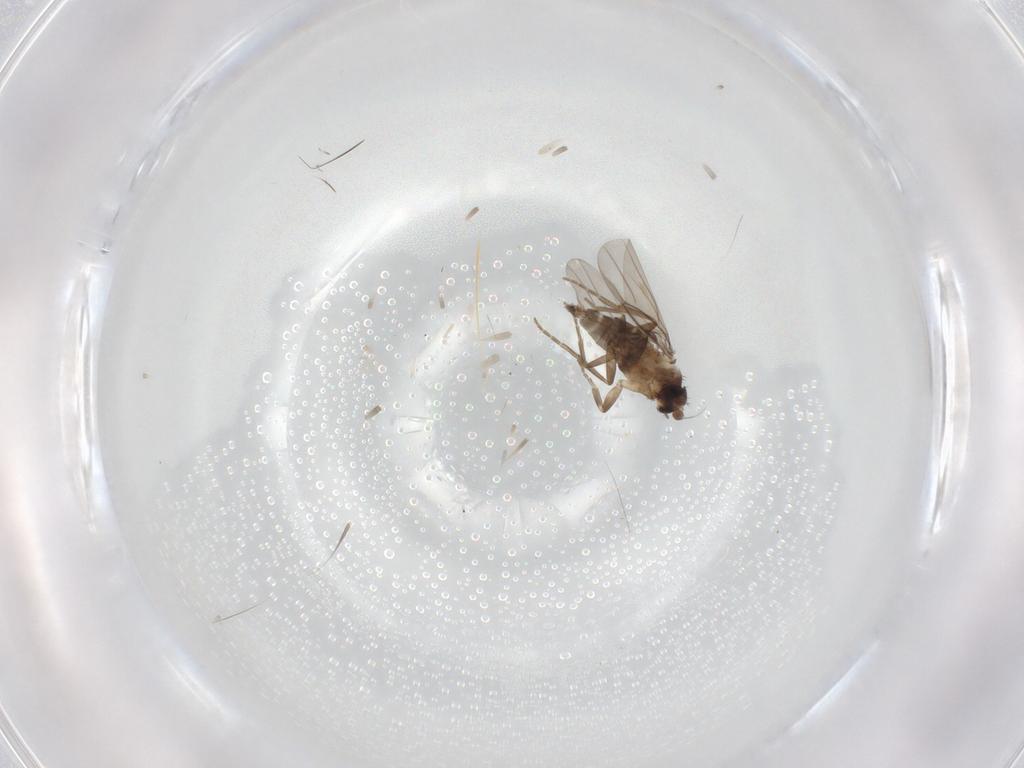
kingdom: Animalia
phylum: Arthropoda
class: Insecta
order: Diptera
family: Phoridae
